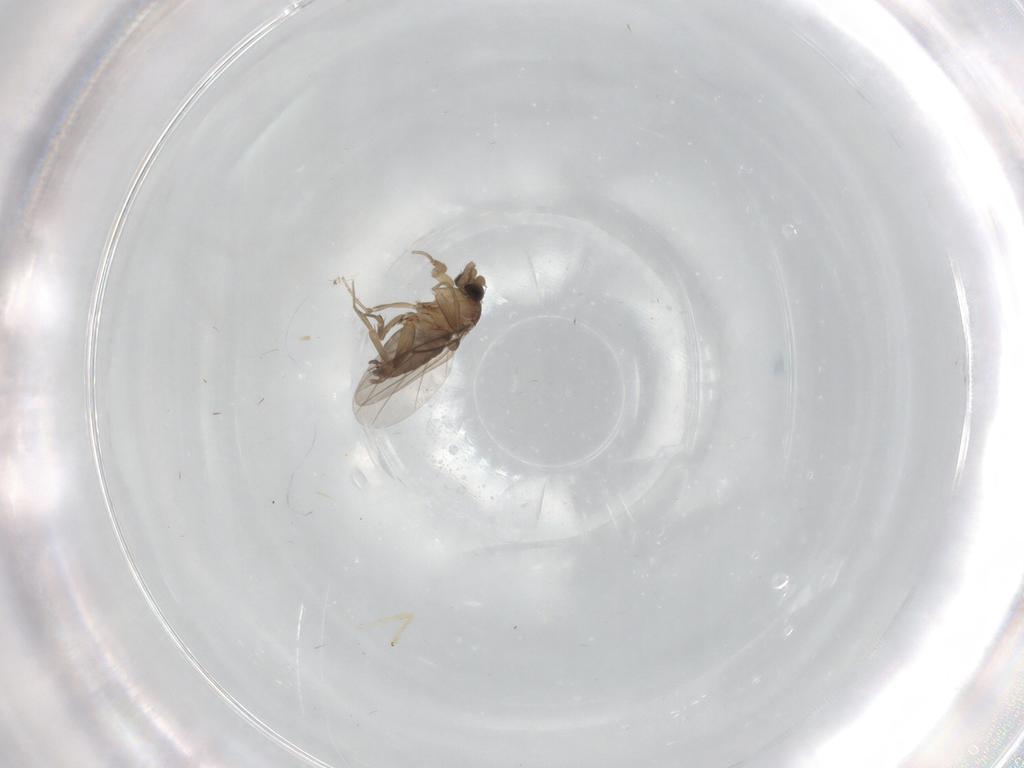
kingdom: Animalia
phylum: Arthropoda
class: Insecta
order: Diptera
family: Phoridae
